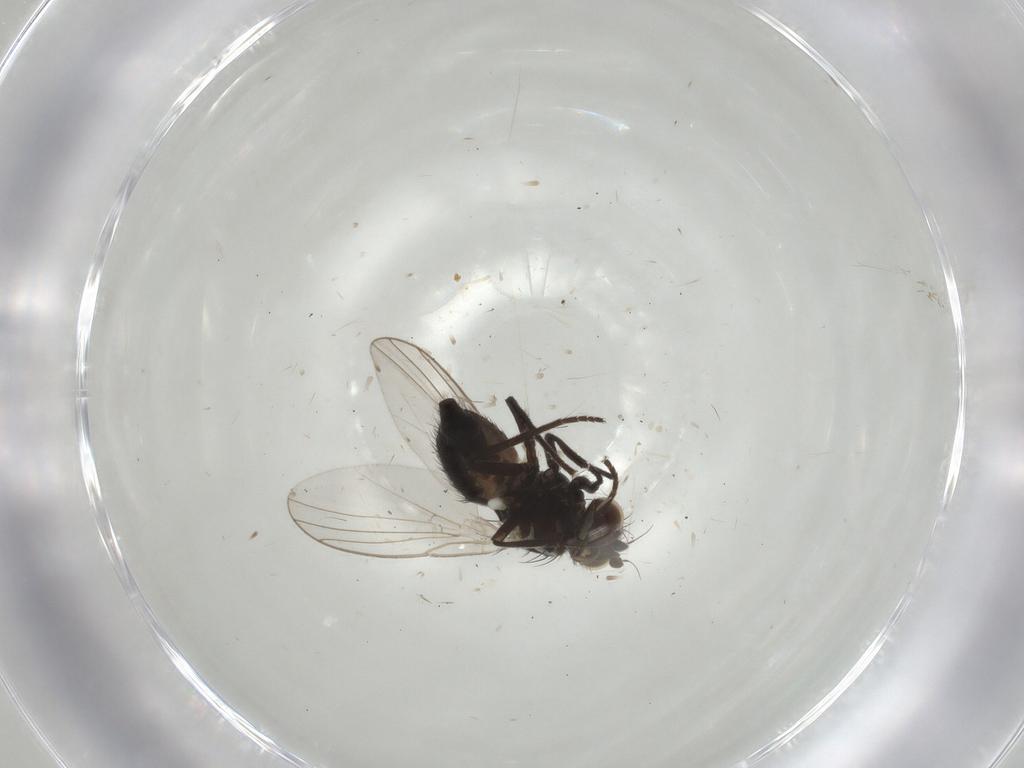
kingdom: Animalia
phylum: Arthropoda
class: Insecta
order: Diptera
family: Agromyzidae
